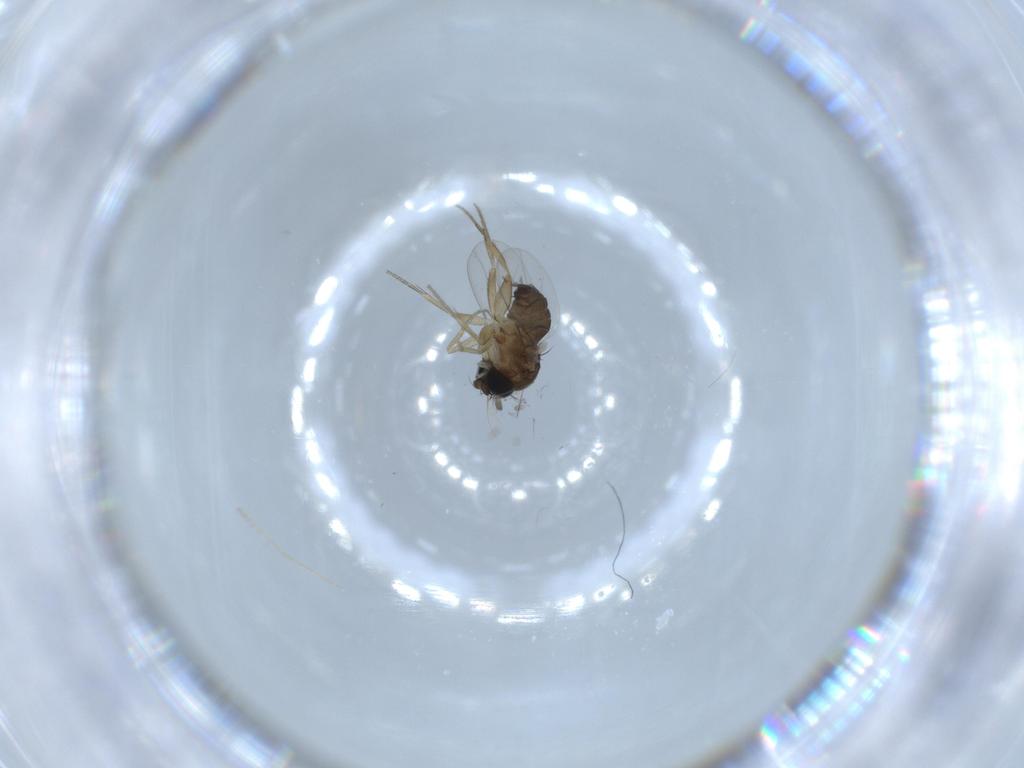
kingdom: Animalia
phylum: Arthropoda
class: Insecta
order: Diptera
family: Phoridae
